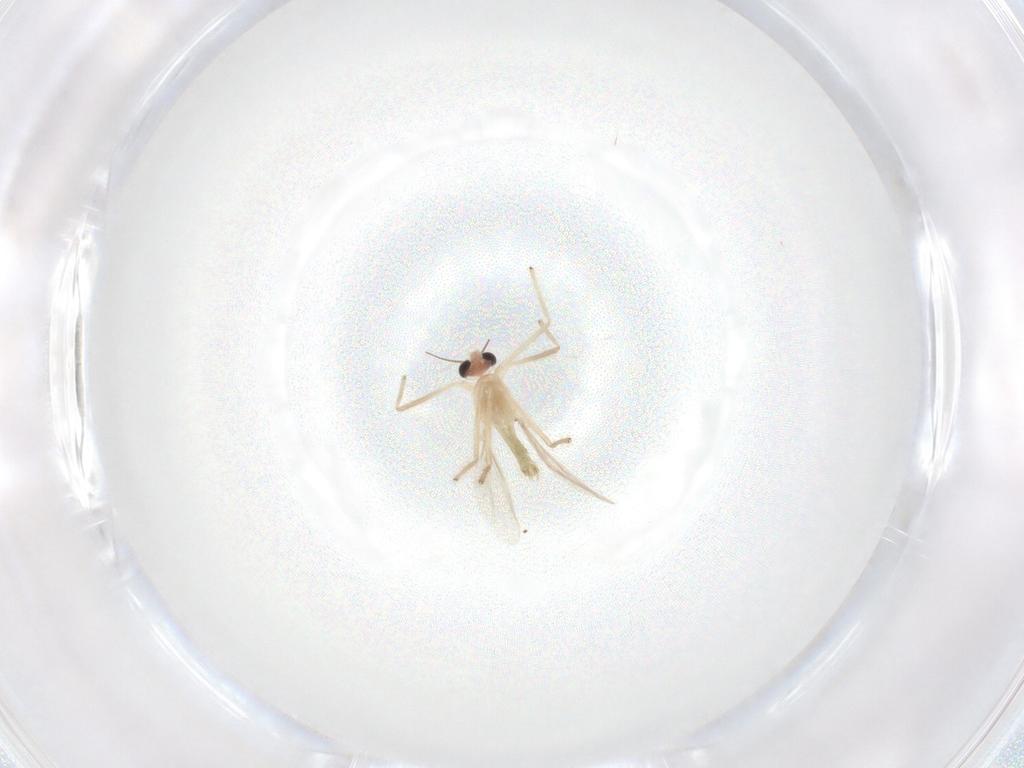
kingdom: Animalia
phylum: Arthropoda
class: Insecta
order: Diptera
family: Chironomidae
